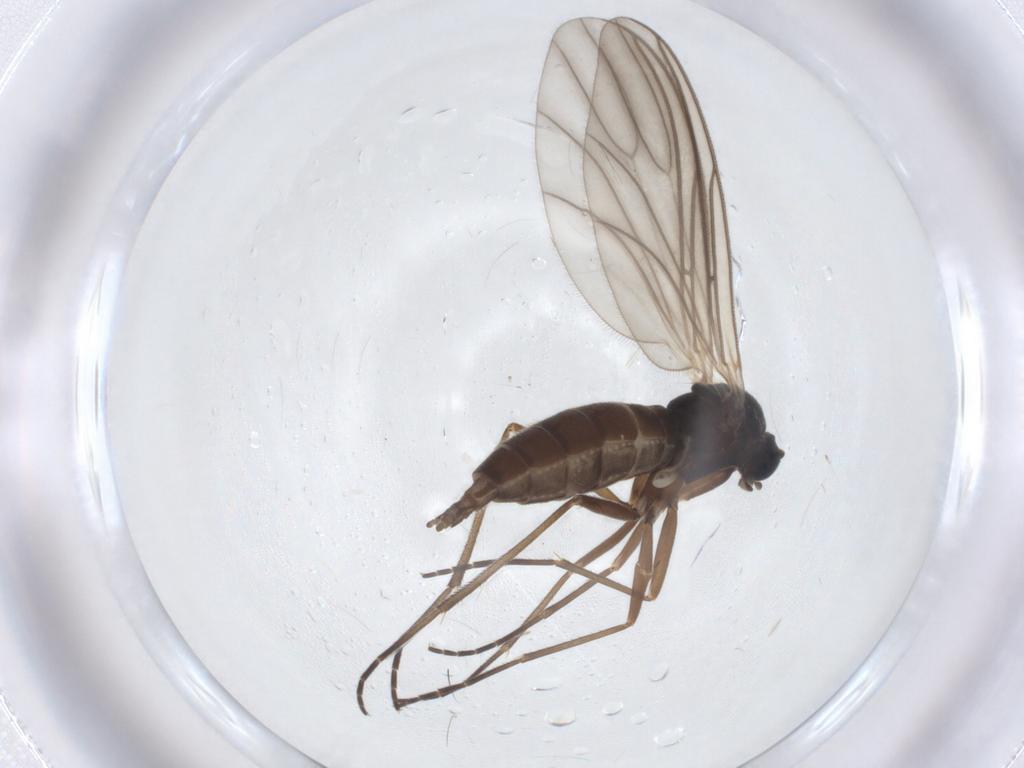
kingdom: Animalia
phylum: Arthropoda
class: Insecta
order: Diptera
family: Sciaridae
